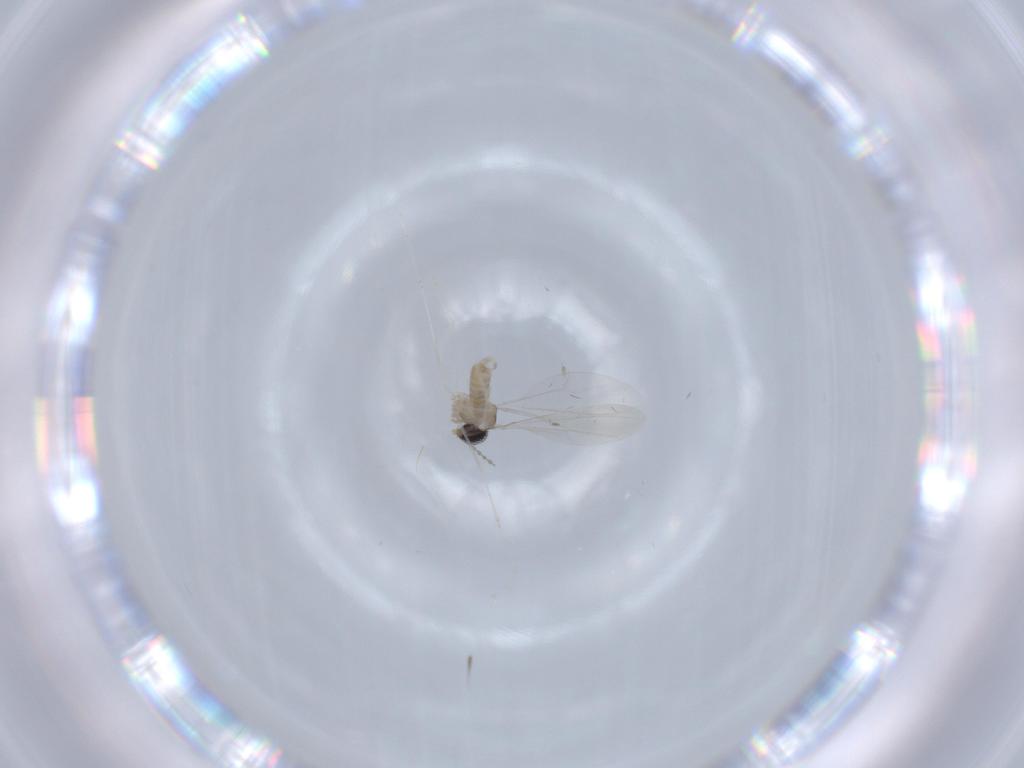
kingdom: Animalia
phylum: Arthropoda
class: Insecta
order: Diptera
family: Cecidomyiidae
